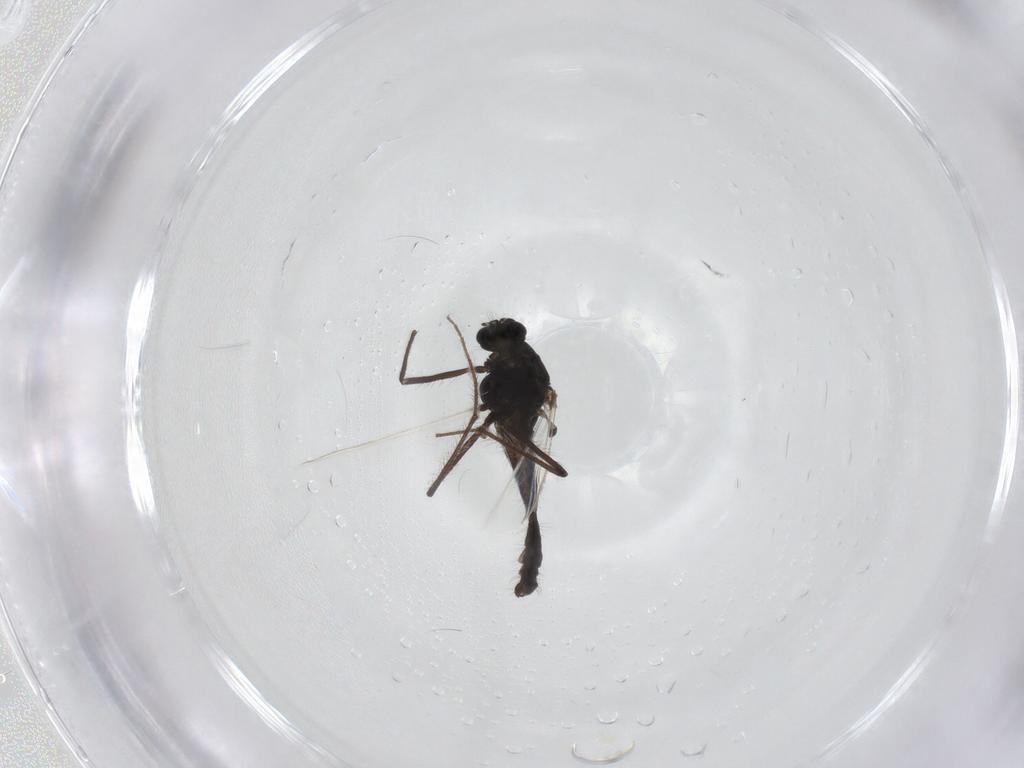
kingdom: Animalia
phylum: Arthropoda
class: Insecta
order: Diptera
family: Chironomidae
